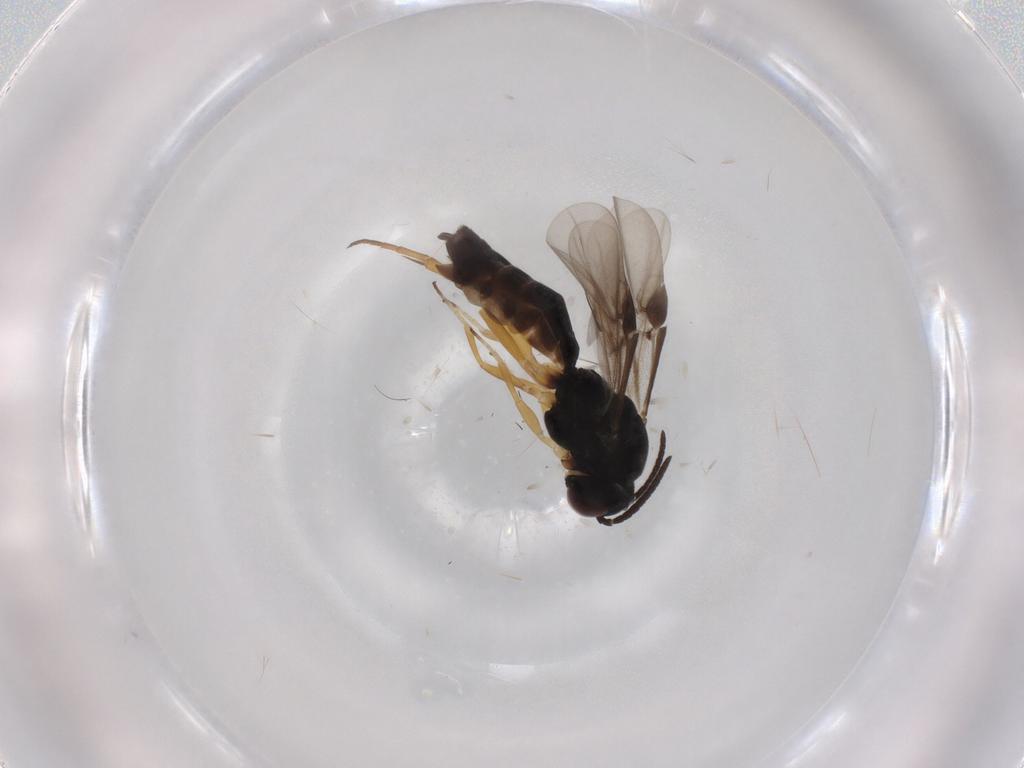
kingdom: Animalia
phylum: Arthropoda
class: Insecta
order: Hymenoptera
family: Braconidae
